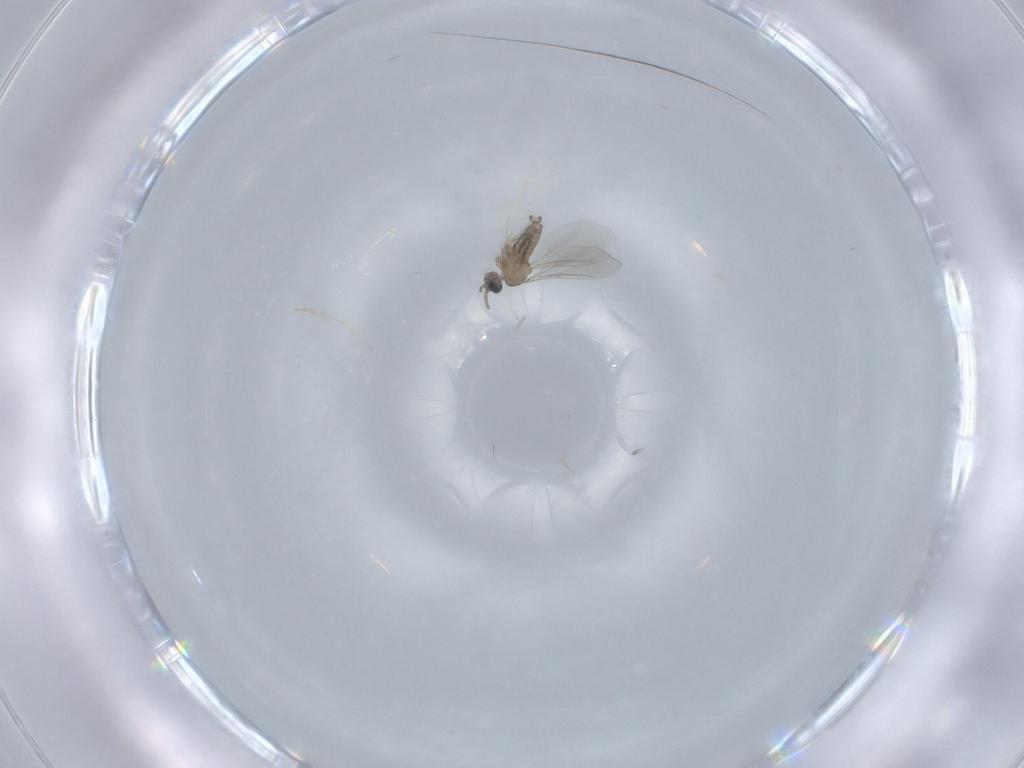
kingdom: Animalia
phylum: Arthropoda
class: Insecta
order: Diptera
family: Cecidomyiidae
